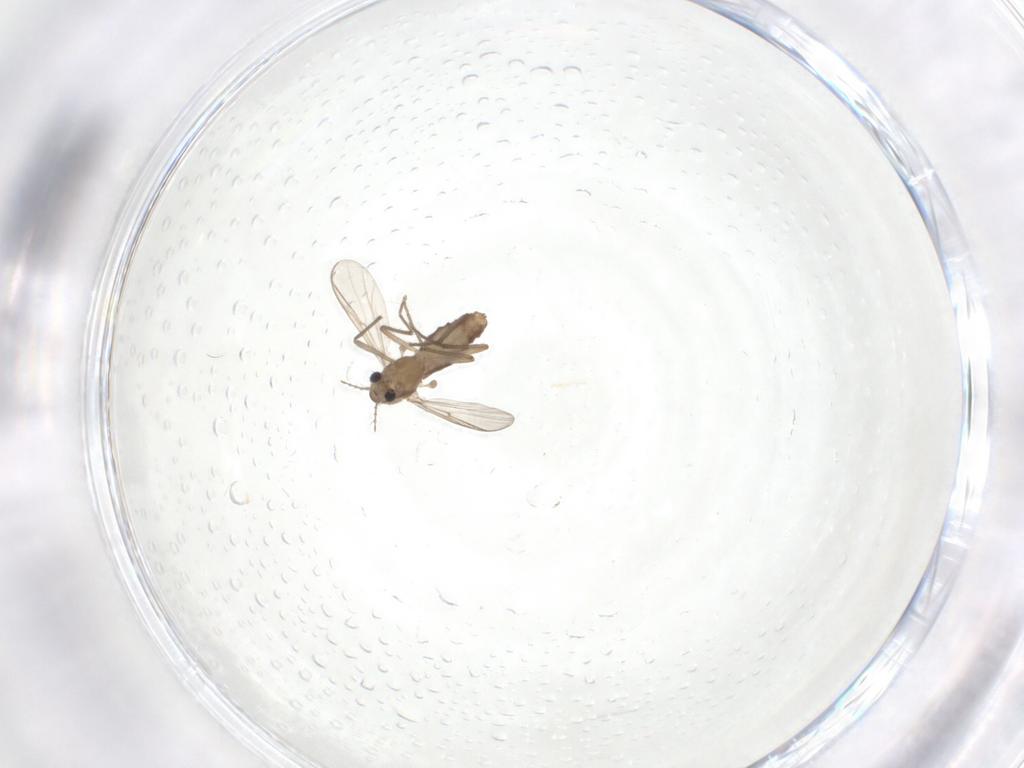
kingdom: Animalia
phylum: Arthropoda
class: Insecta
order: Diptera
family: Chironomidae
